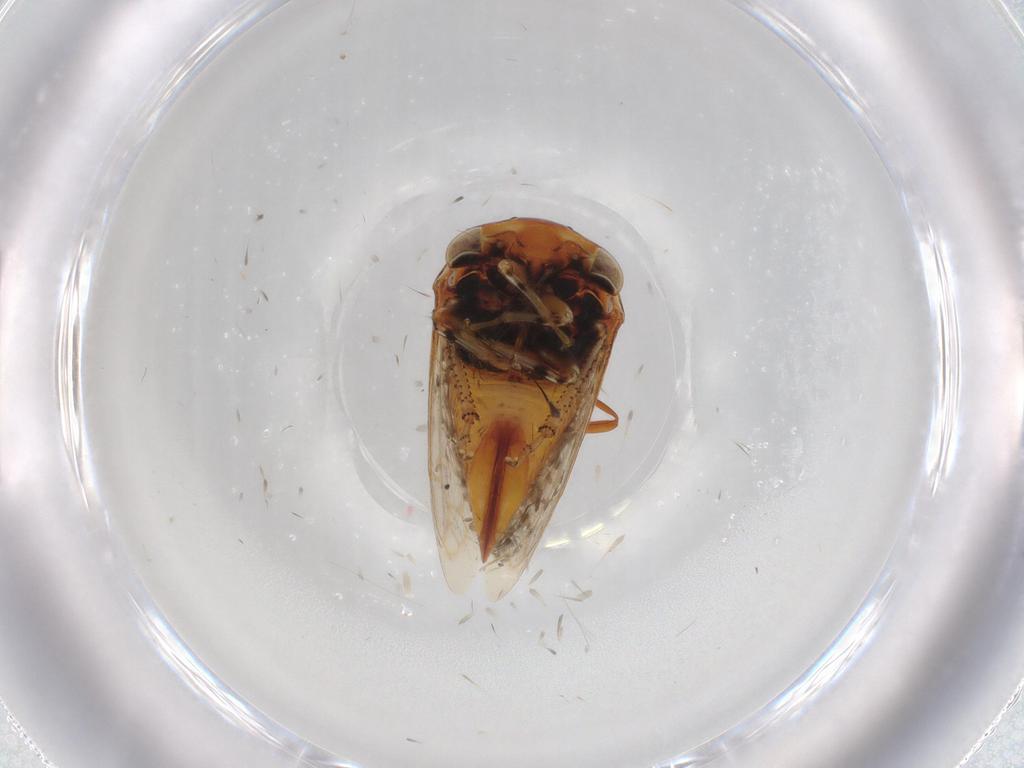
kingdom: Animalia
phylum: Arthropoda
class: Insecta
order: Hemiptera
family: Membracidae
